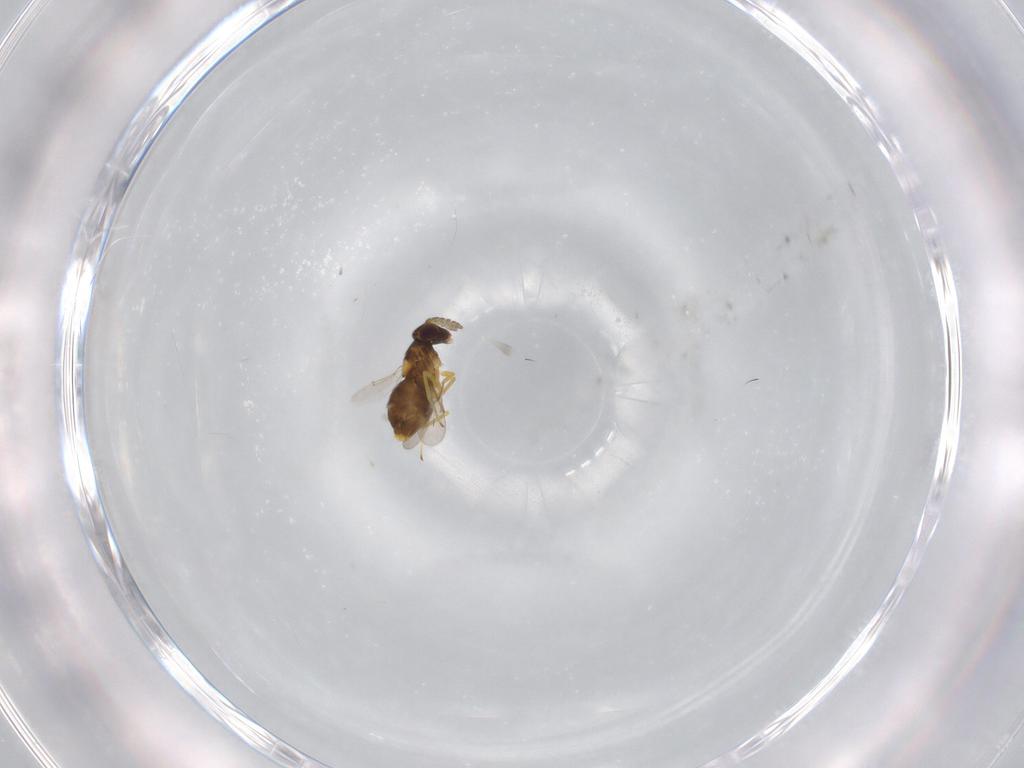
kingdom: Animalia
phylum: Arthropoda
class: Insecta
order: Hymenoptera
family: Aphelinidae
